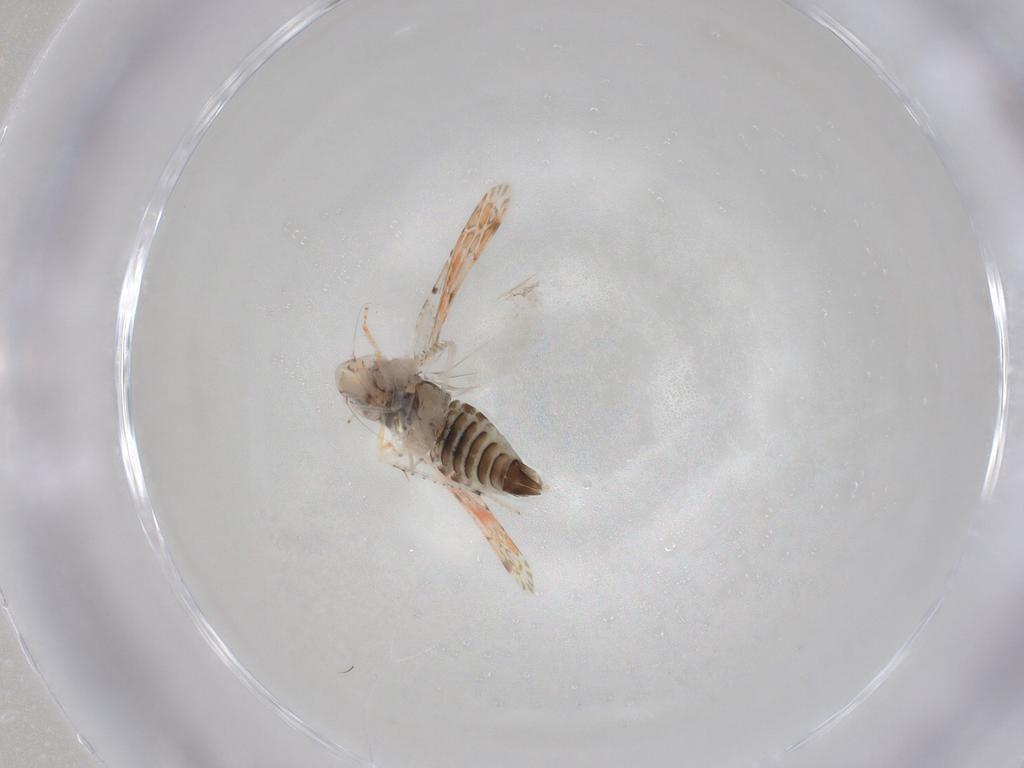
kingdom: Animalia
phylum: Arthropoda
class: Insecta
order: Hemiptera
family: Cicadellidae
